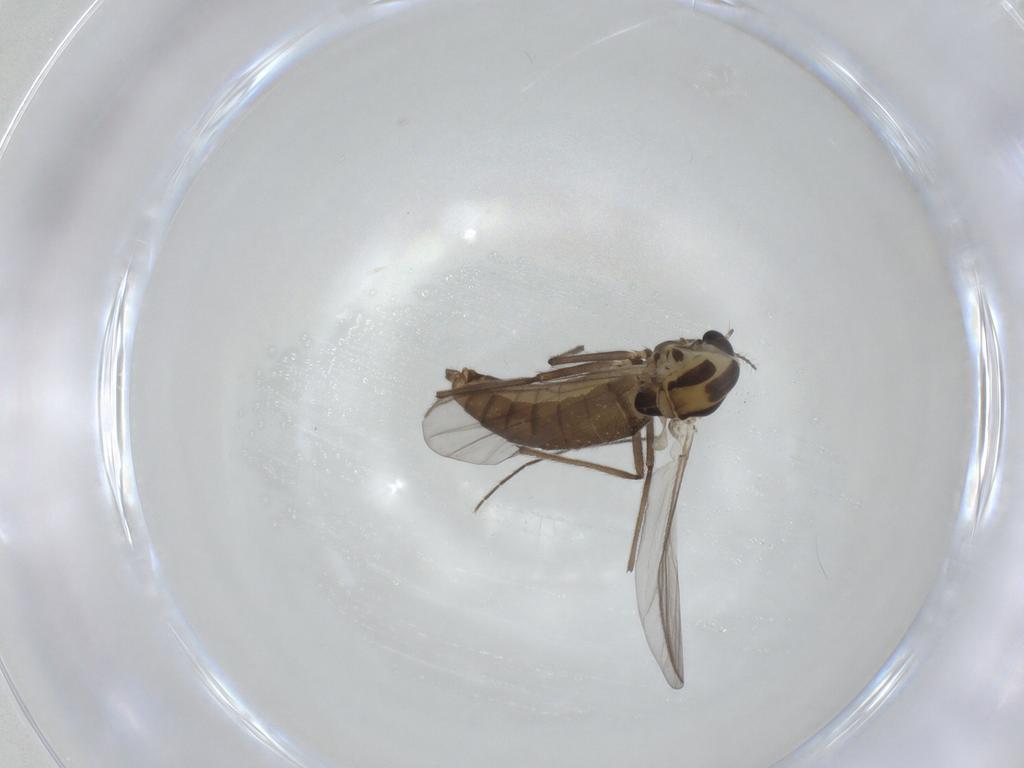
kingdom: Animalia
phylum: Arthropoda
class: Insecta
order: Diptera
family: Chironomidae
